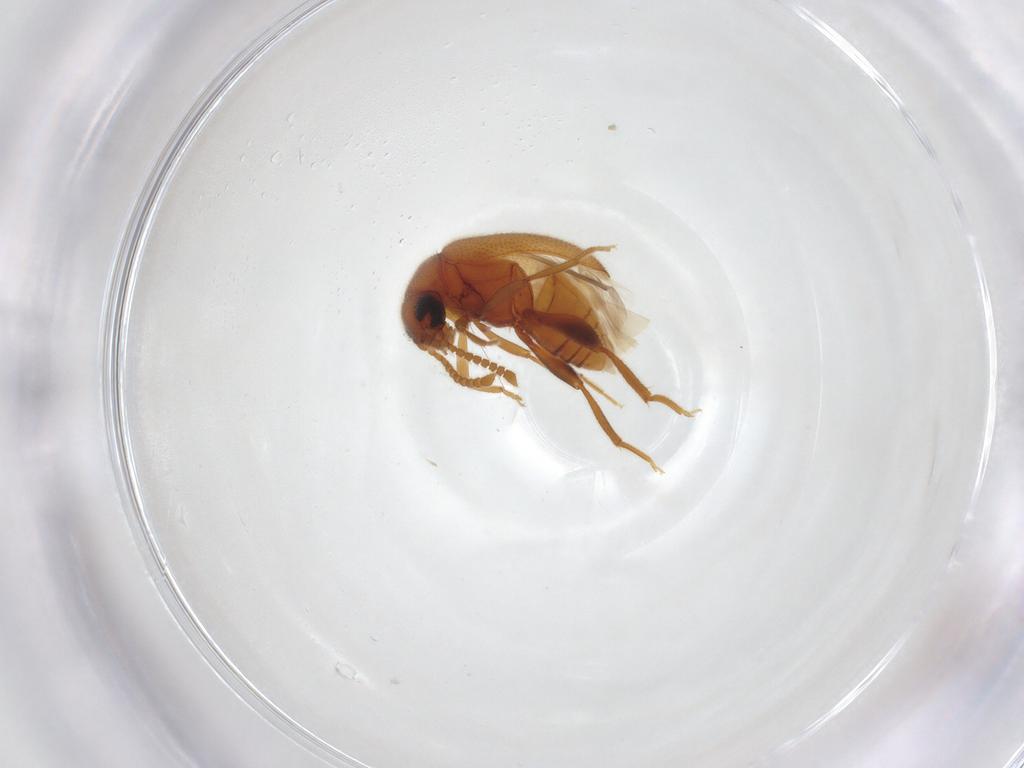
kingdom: Animalia
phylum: Arthropoda
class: Insecta
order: Coleoptera
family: Aderidae
